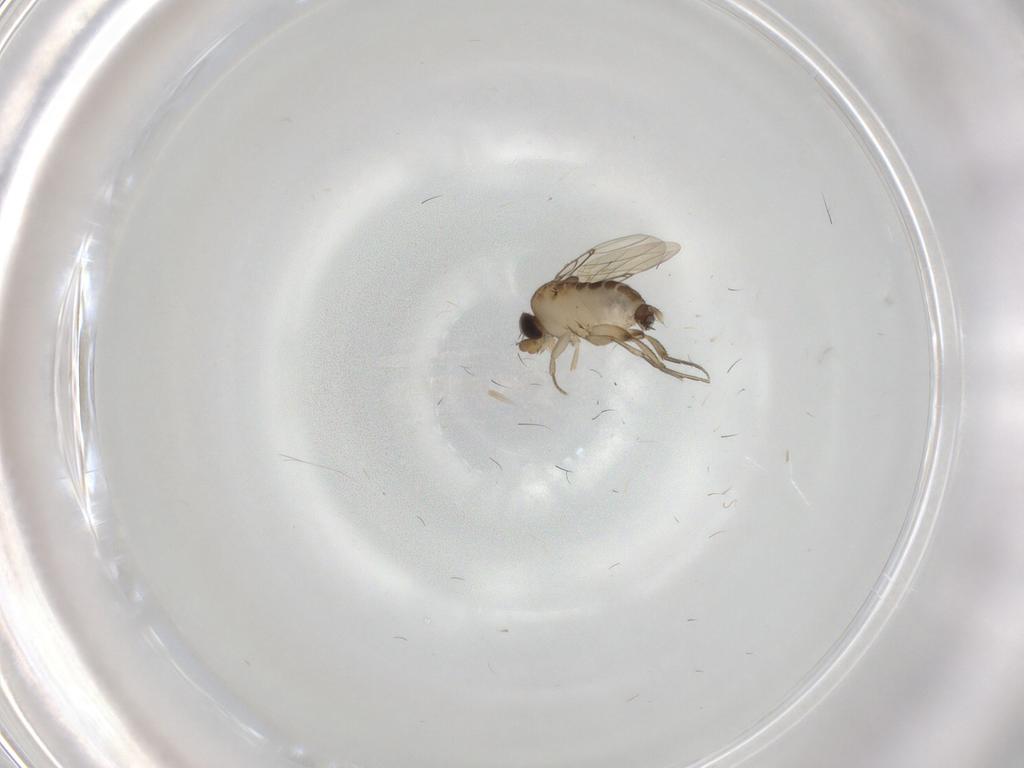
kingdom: Animalia
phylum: Arthropoda
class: Insecta
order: Diptera
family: Phoridae
